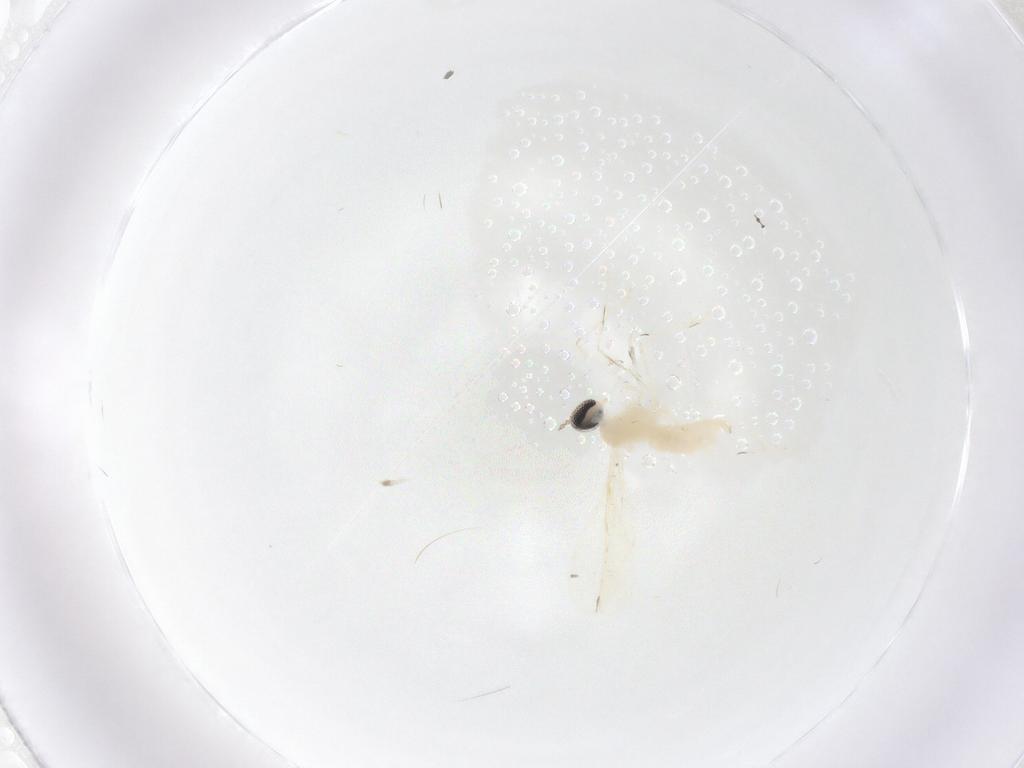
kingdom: Animalia
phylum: Arthropoda
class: Insecta
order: Diptera
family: Cecidomyiidae
